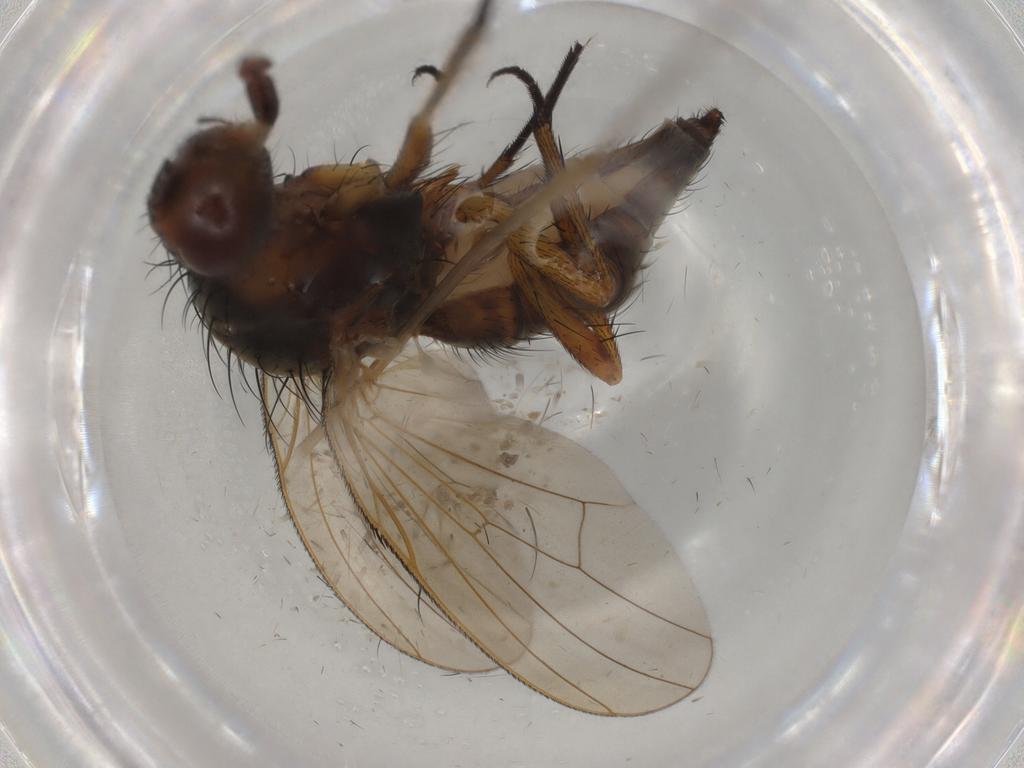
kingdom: Animalia
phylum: Arthropoda
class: Insecta
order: Diptera
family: Anthomyiidae
